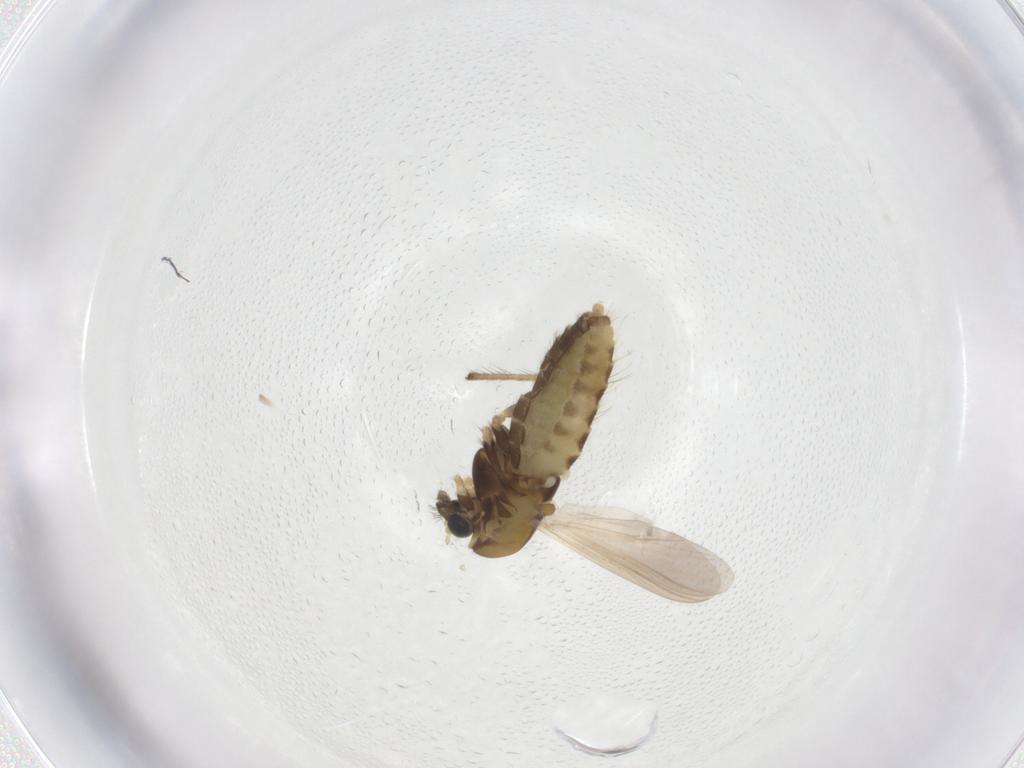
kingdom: Animalia
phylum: Arthropoda
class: Insecta
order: Diptera
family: Chironomidae
